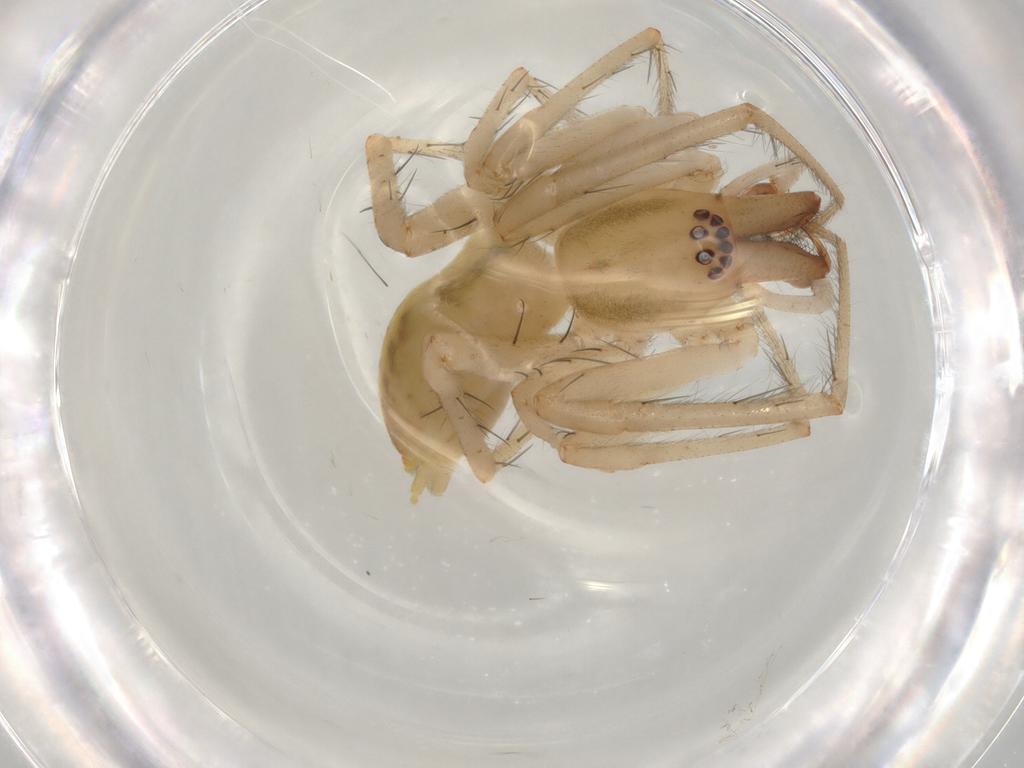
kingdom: Animalia
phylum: Arthropoda
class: Arachnida
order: Araneae
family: Anyphaenidae
